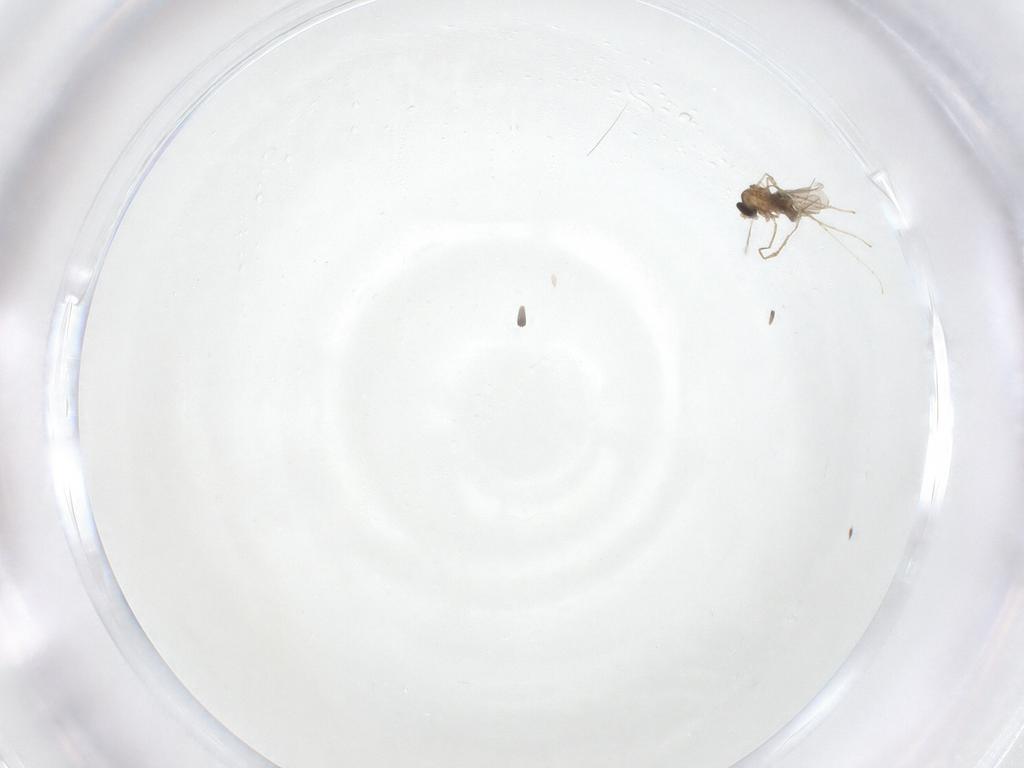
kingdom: Animalia
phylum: Arthropoda
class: Insecta
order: Diptera
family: Cecidomyiidae
